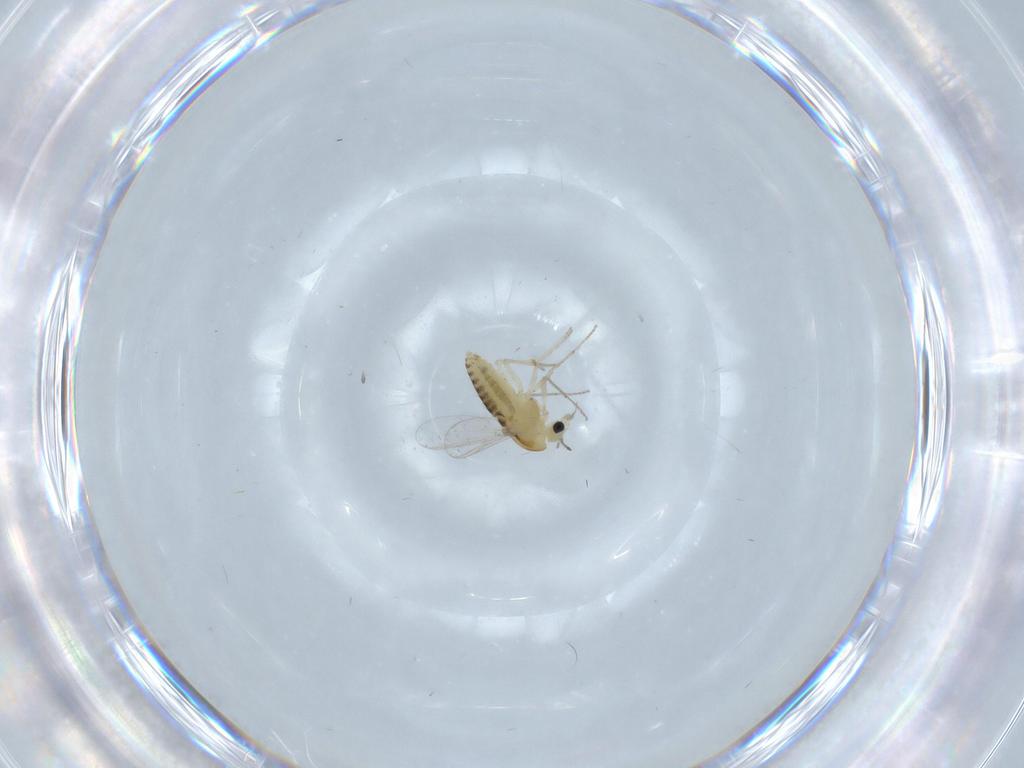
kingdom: Animalia
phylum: Arthropoda
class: Insecta
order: Diptera
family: Chironomidae
